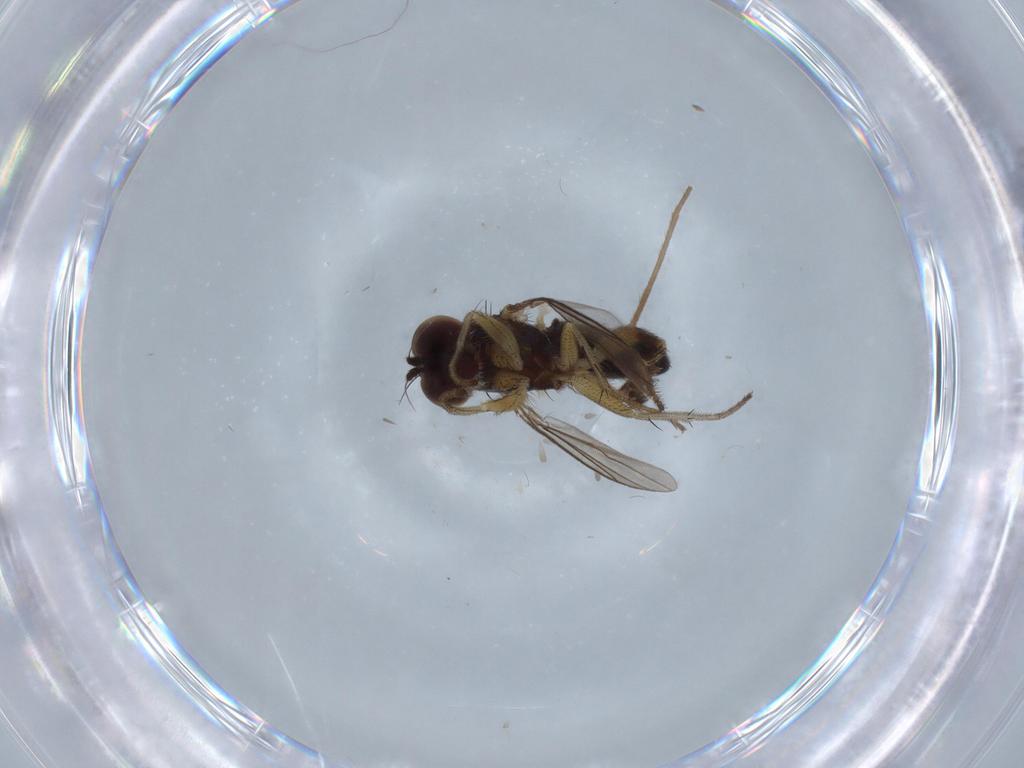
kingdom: Animalia
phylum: Arthropoda
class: Insecta
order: Diptera
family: Chironomidae
